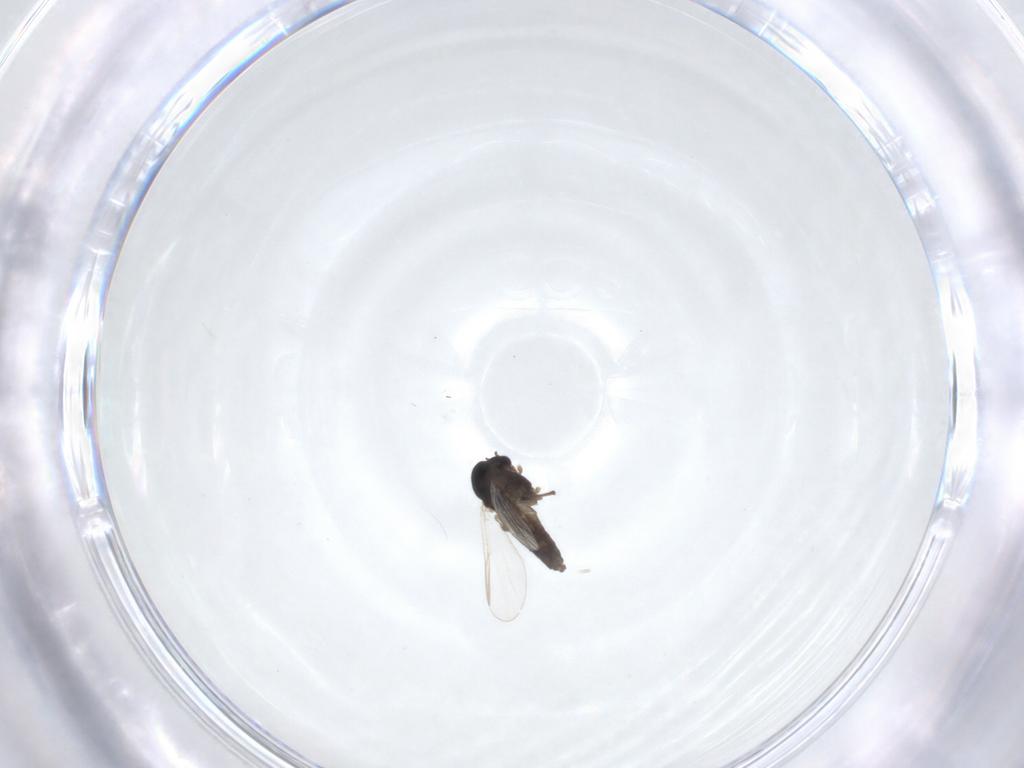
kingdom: Animalia
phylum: Arthropoda
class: Insecta
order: Diptera
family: Chironomidae
